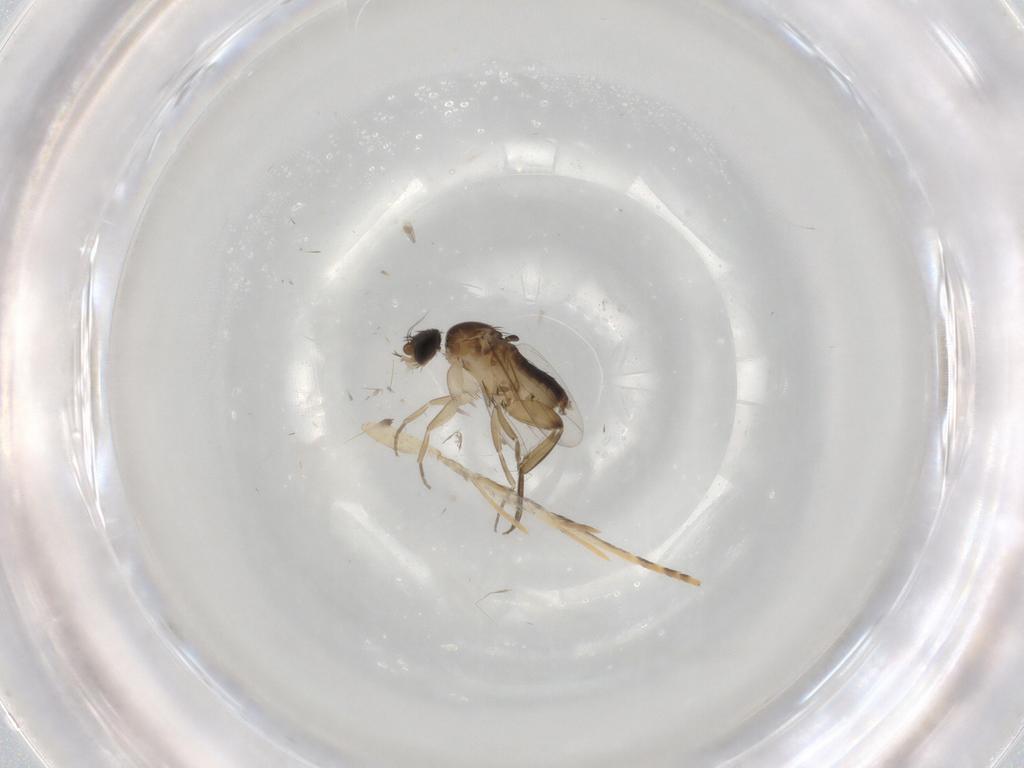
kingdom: Animalia
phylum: Arthropoda
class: Insecta
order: Diptera
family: Phoridae
